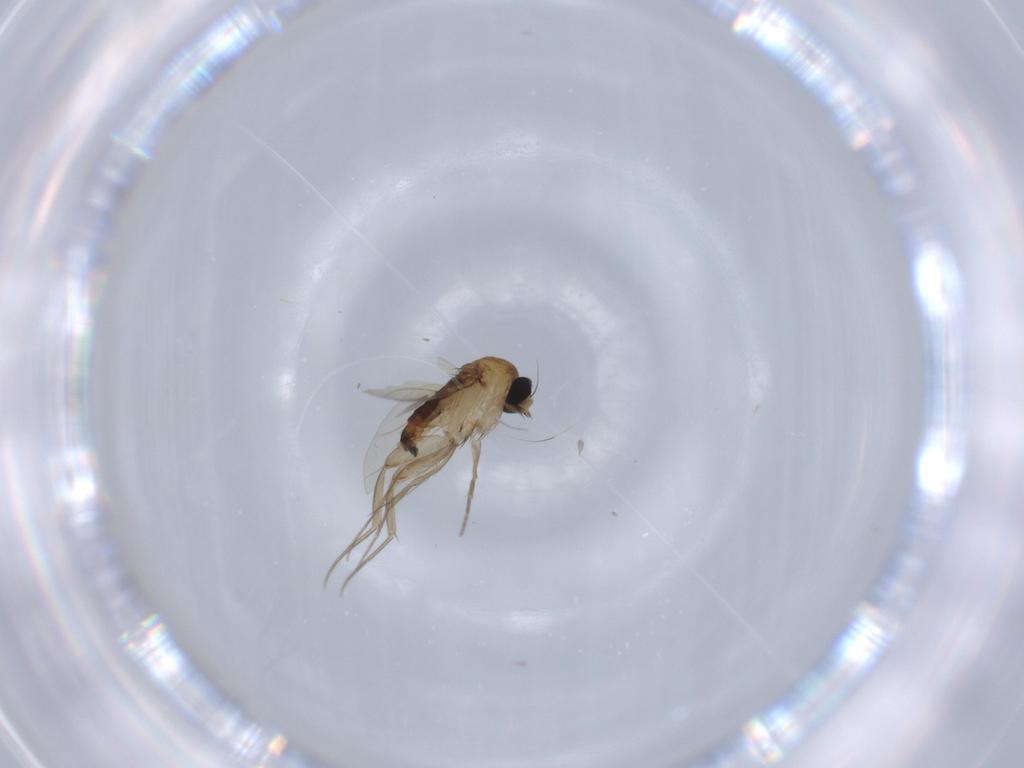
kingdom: Animalia
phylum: Arthropoda
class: Insecta
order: Diptera
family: Phoridae
